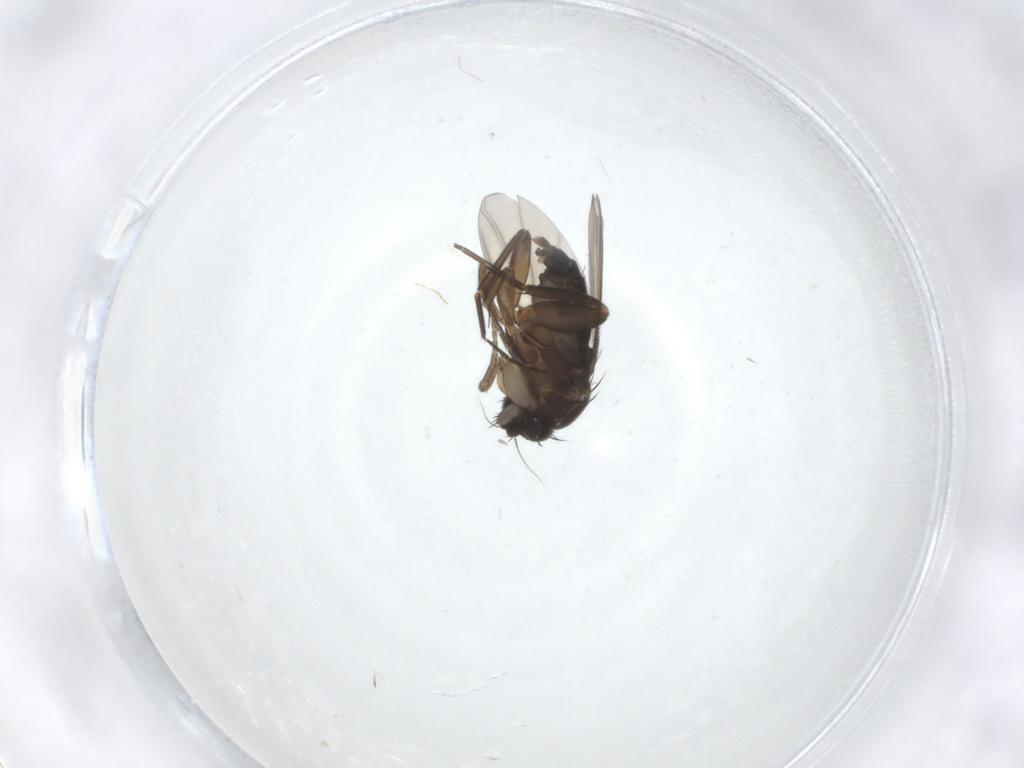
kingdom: Animalia
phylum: Arthropoda
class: Insecta
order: Diptera
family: Phoridae
